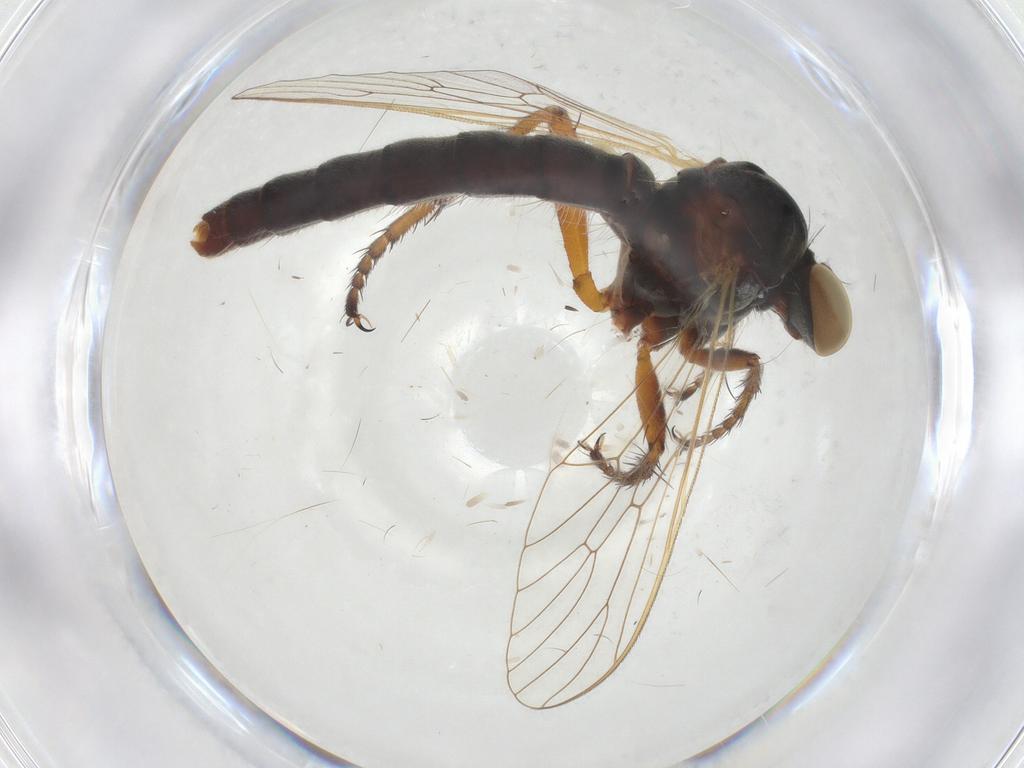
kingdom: Animalia
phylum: Arthropoda
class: Insecta
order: Diptera
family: Asilidae
